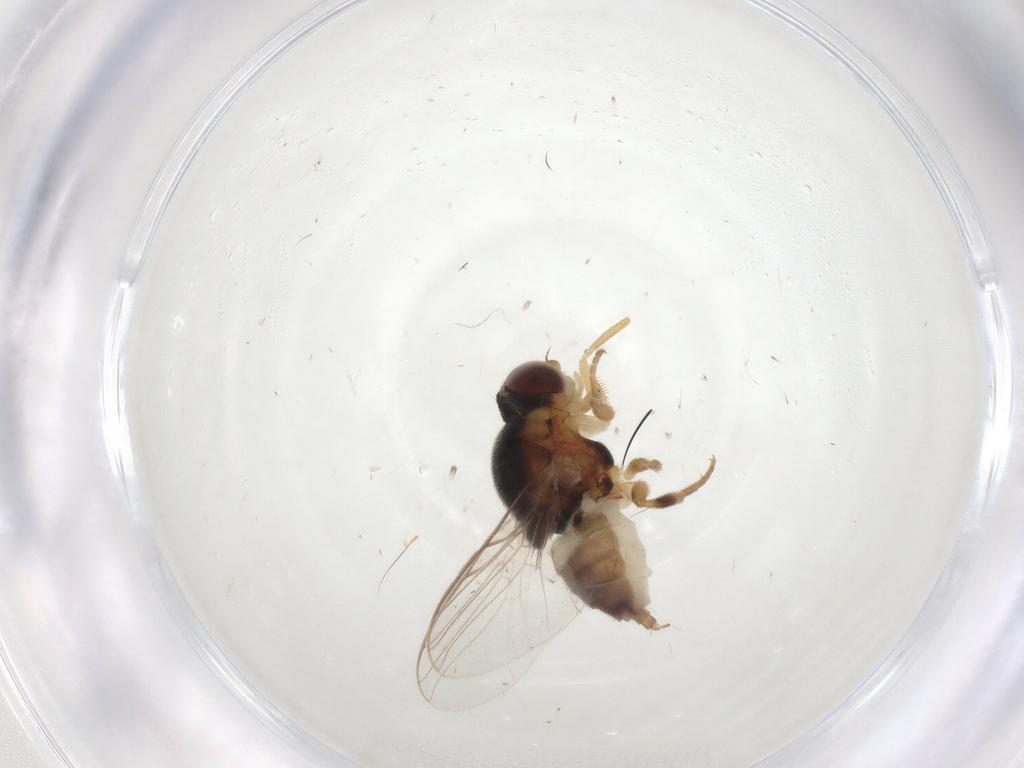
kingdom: Animalia
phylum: Arthropoda
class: Insecta
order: Diptera
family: Chloropidae
